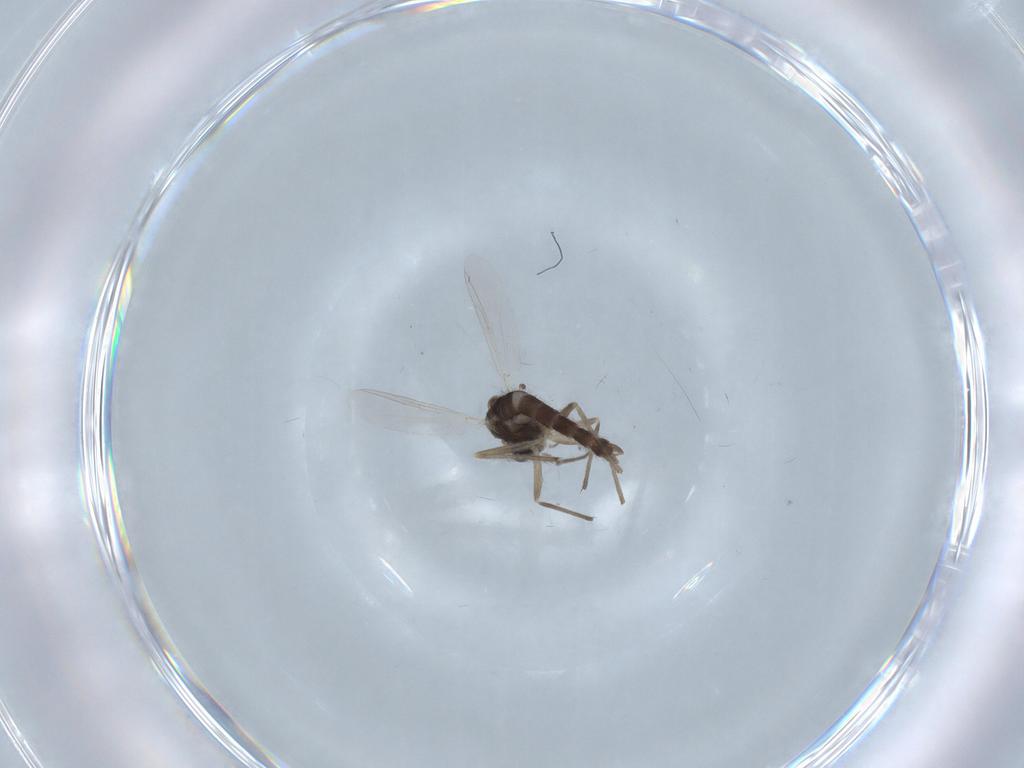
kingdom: Animalia
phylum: Arthropoda
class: Insecta
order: Diptera
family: Chironomidae
